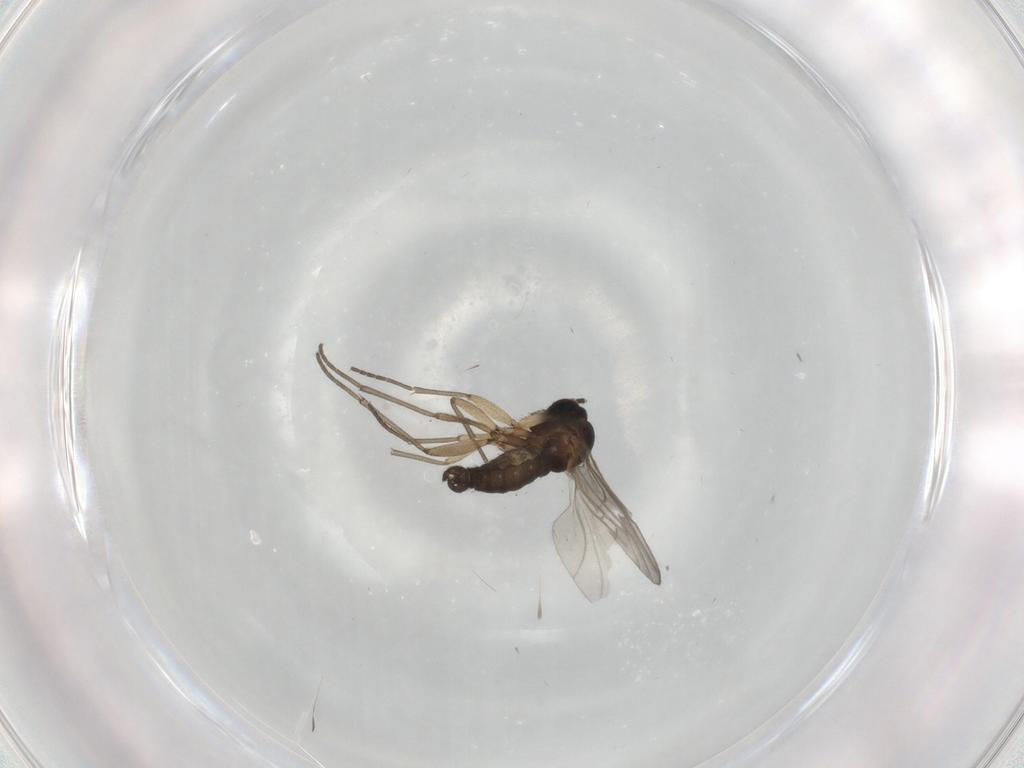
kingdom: Animalia
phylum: Arthropoda
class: Insecta
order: Diptera
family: Sciaridae
